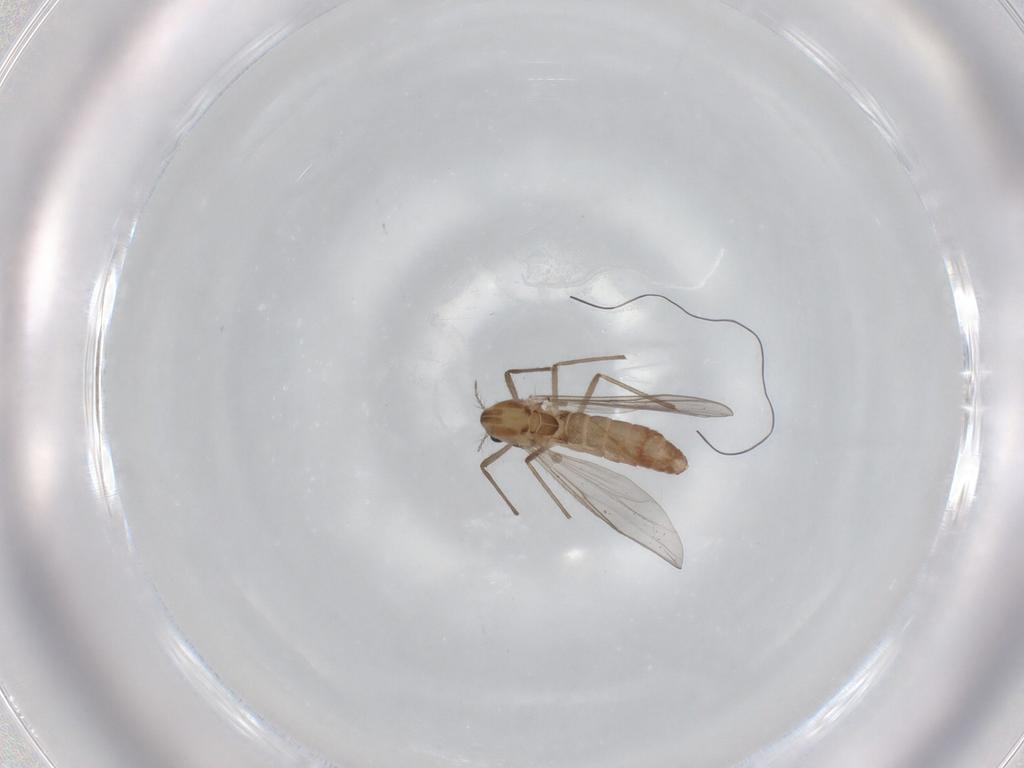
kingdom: Animalia
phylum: Arthropoda
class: Insecta
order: Diptera
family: Chironomidae
